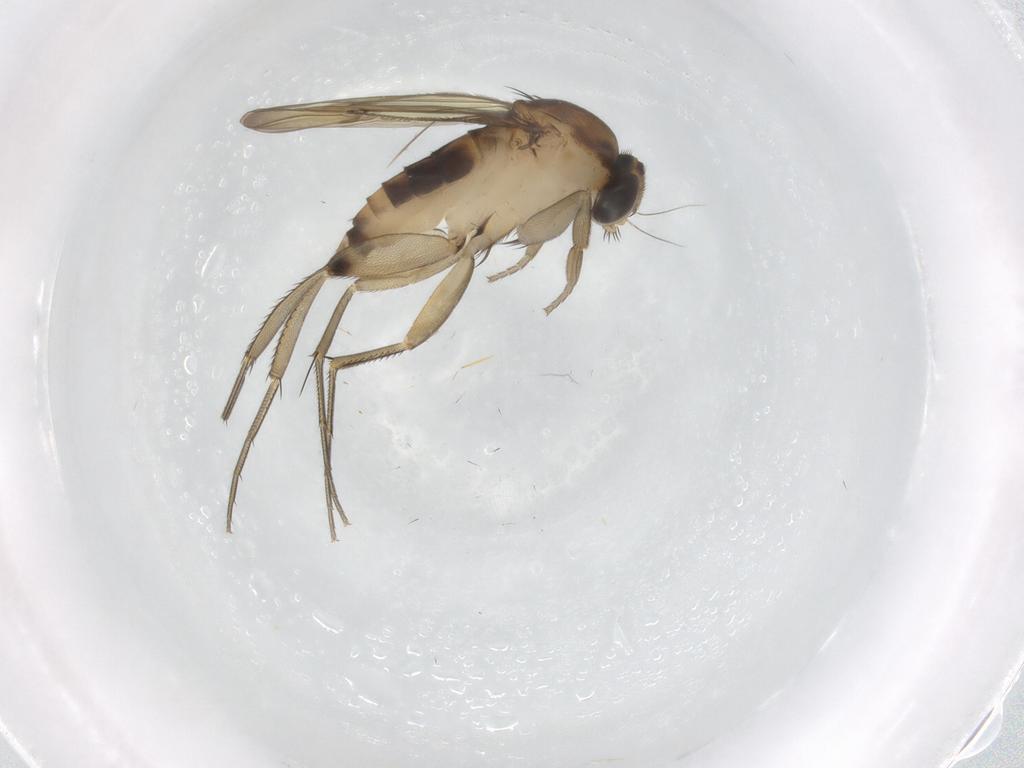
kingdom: Animalia
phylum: Arthropoda
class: Insecta
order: Diptera
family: Phoridae
